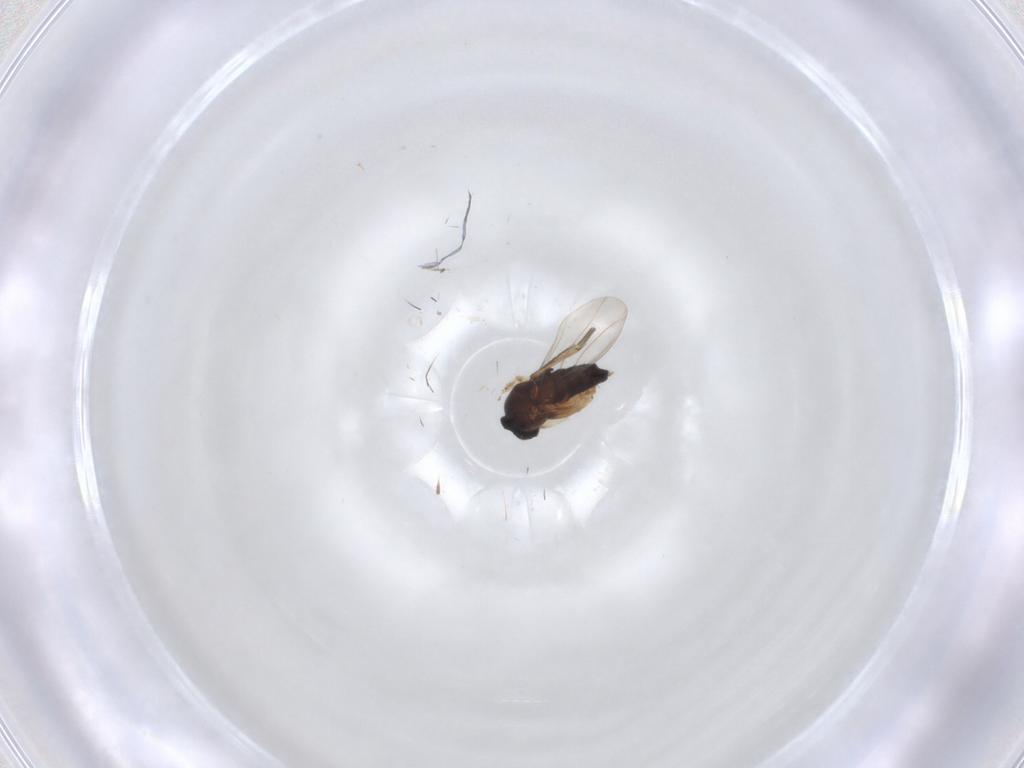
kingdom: Animalia
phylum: Arthropoda
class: Insecta
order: Diptera
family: Phoridae
